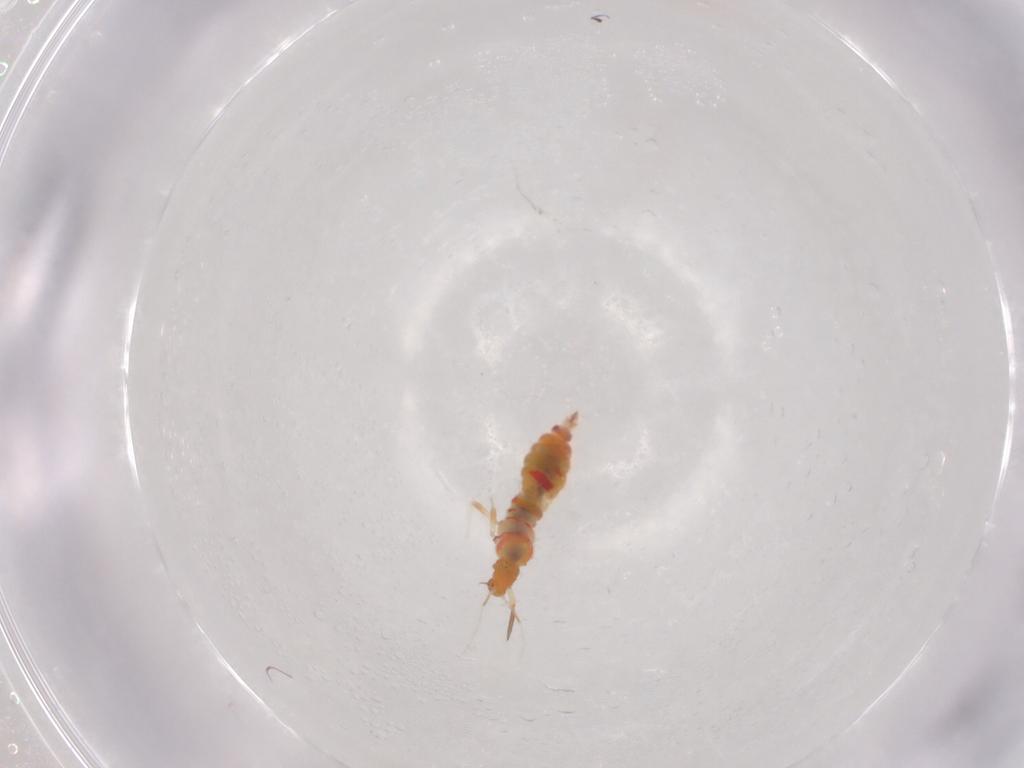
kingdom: Animalia
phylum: Arthropoda
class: Insecta
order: Thysanoptera
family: Aeolothripidae
